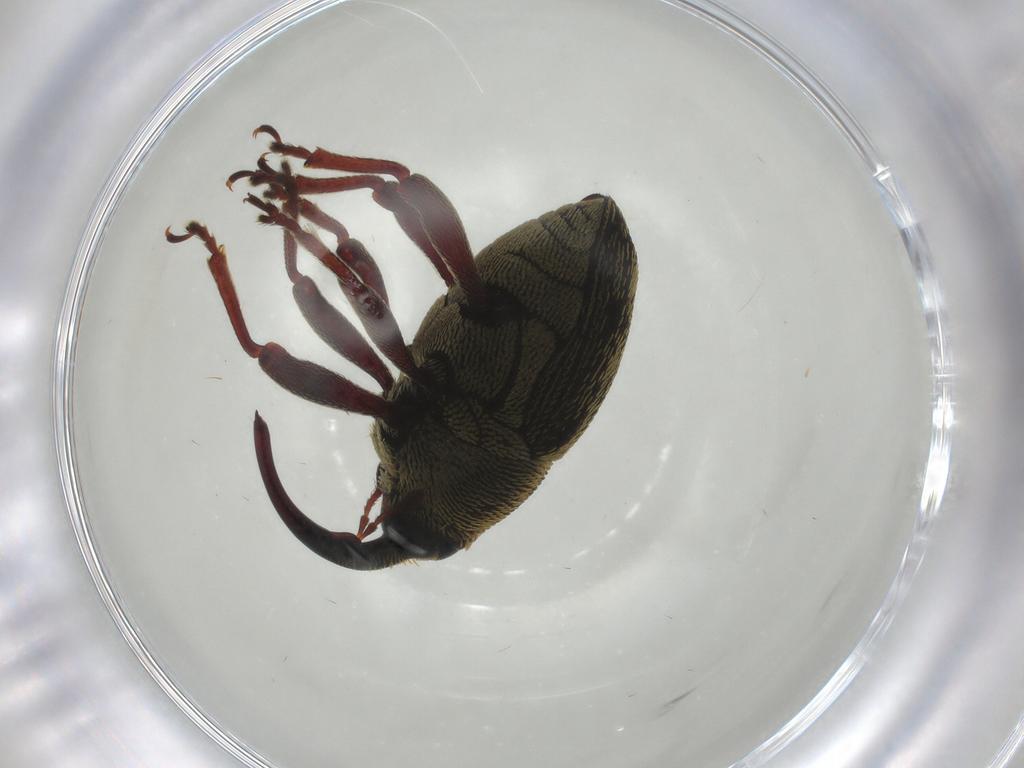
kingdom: Animalia
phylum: Arthropoda
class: Insecta
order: Coleoptera
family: Curculionidae
